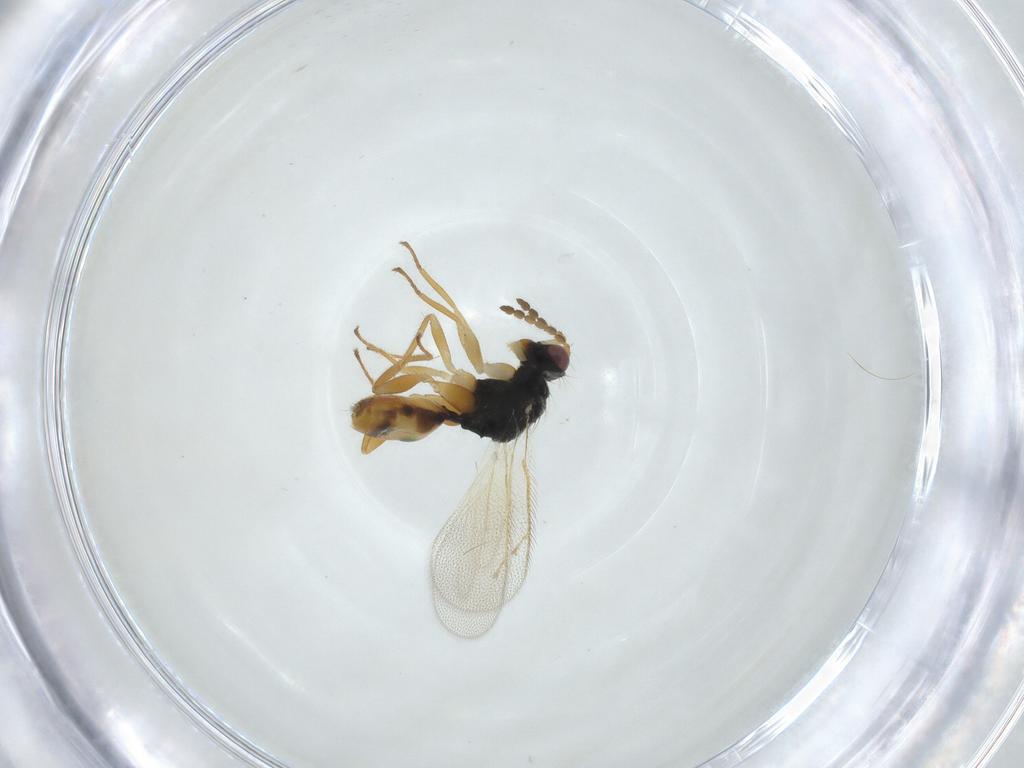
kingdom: Animalia
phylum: Arthropoda
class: Insecta
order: Hymenoptera
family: Eulophidae
